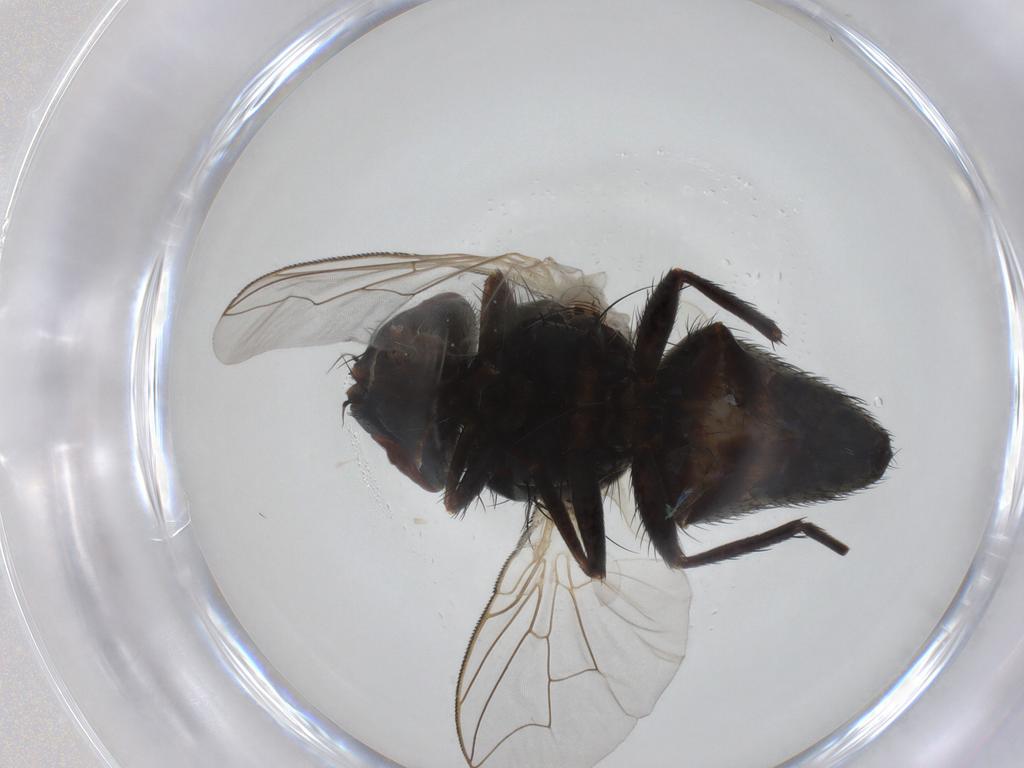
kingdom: Animalia
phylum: Arthropoda
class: Insecta
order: Diptera
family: Sarcophagidae
